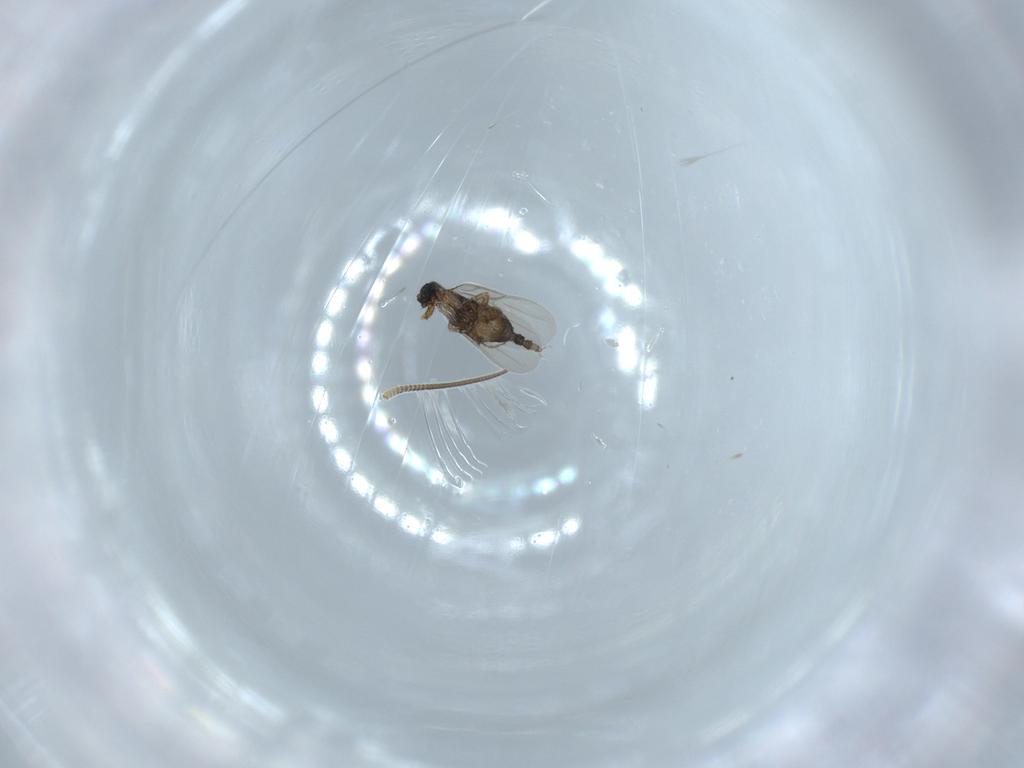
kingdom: Animalia
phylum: Arthropoda
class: Insecta
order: Diptera
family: Phoridae
